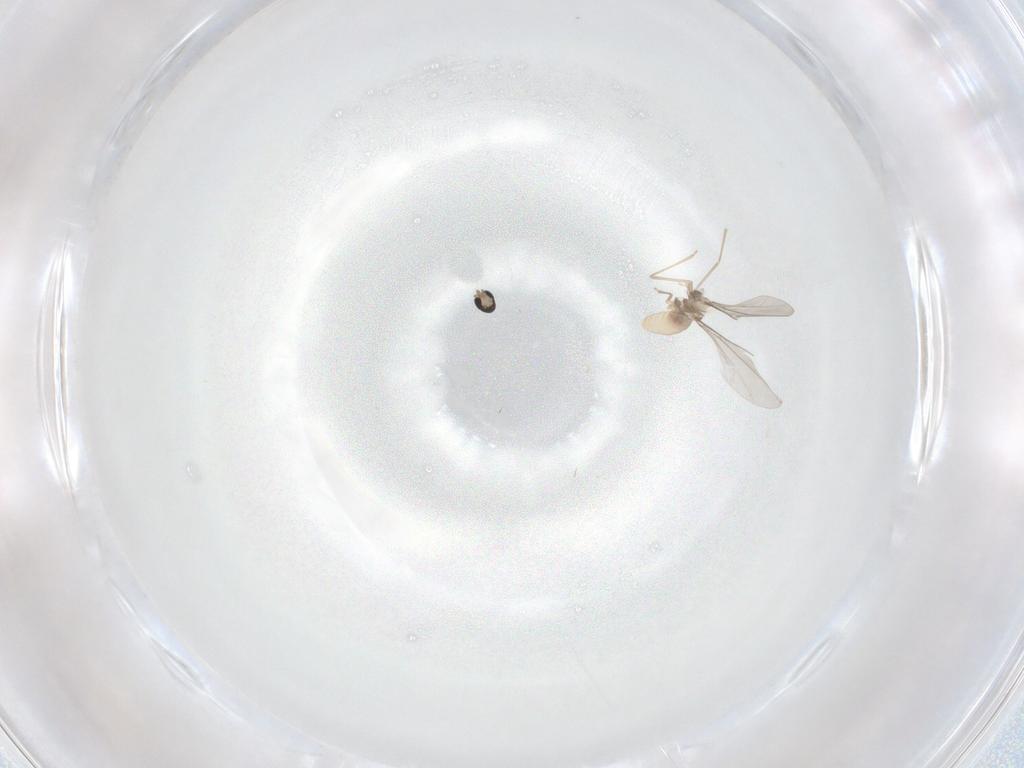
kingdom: Animalia
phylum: Arthropoda
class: Insecta
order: Diptera
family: Cecidomyiidae
